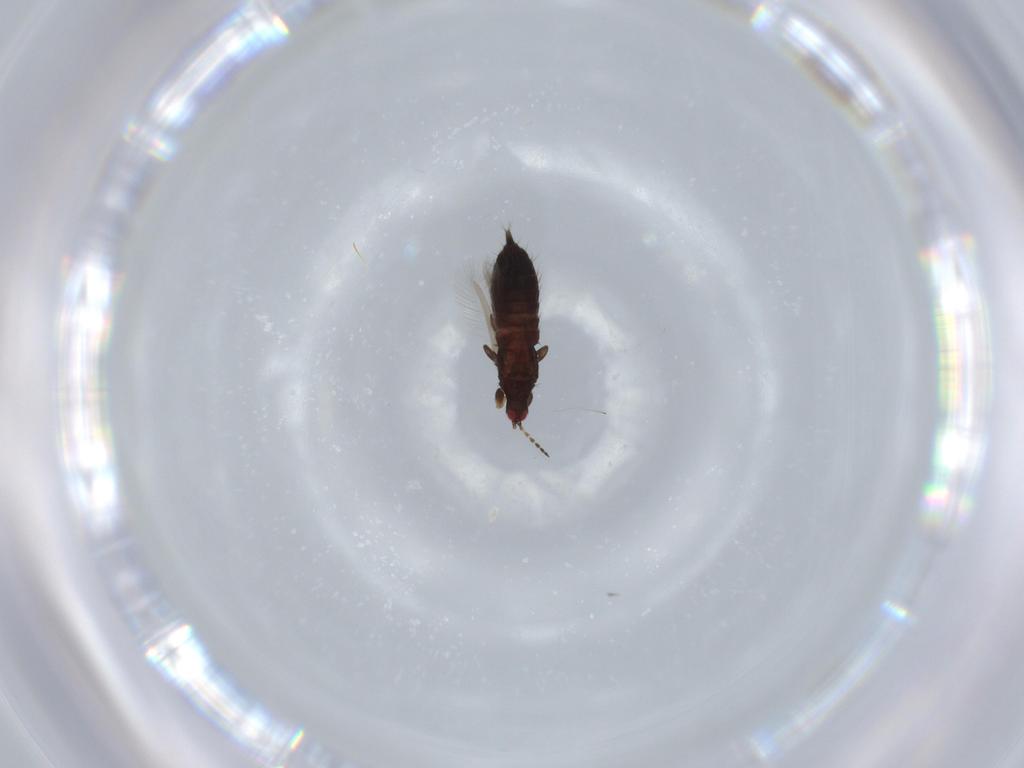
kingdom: Animalia
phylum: Arthropoda
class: Insecta
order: Thysanoptera
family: Phlaeothripidae
